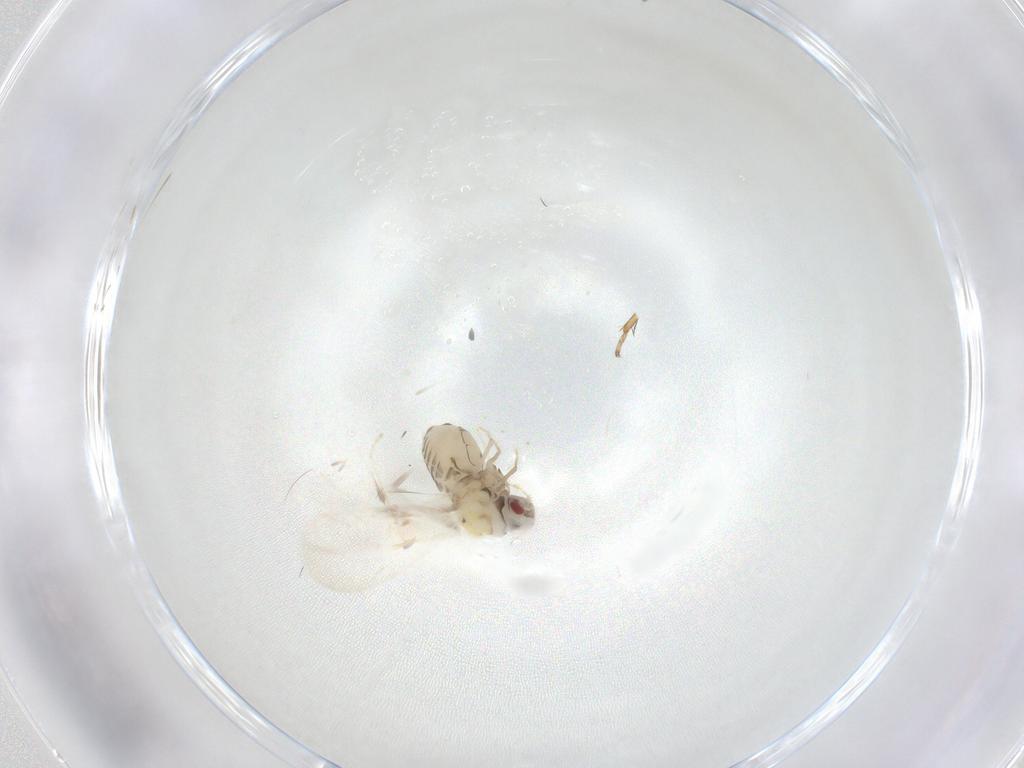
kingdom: Animalia
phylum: Arthropoda
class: Insecta
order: Hemiptera
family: Aleyrodidae
